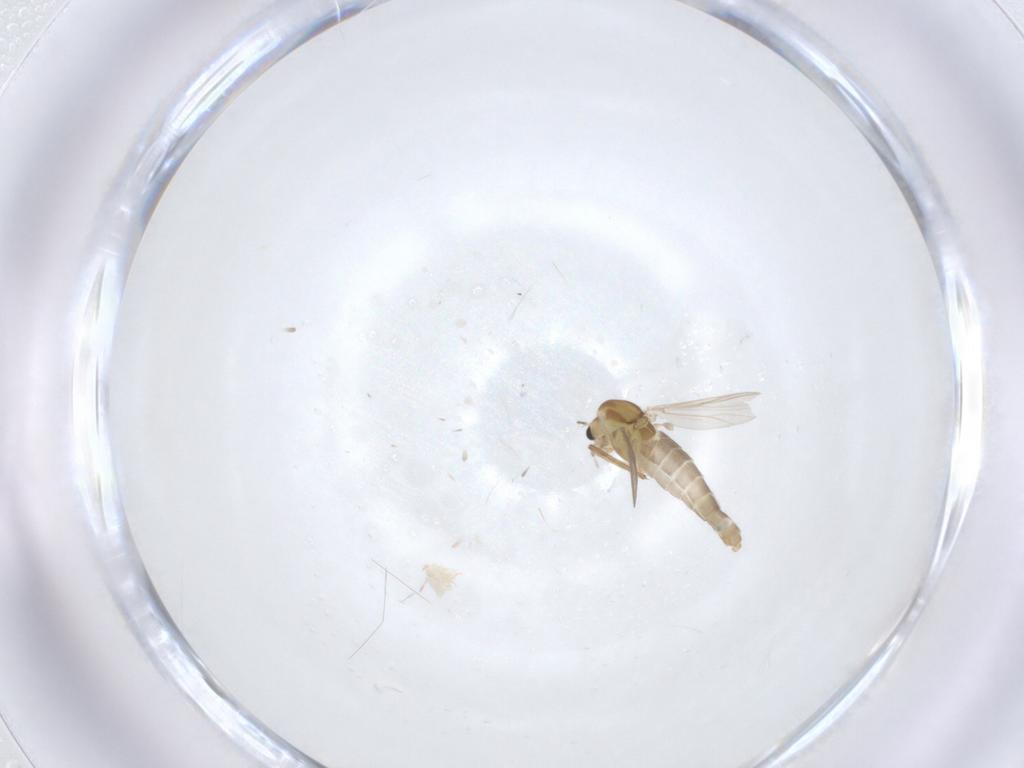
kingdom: Animalia
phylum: Arthropoda
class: Insecta
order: Diptera
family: Chironomidae
